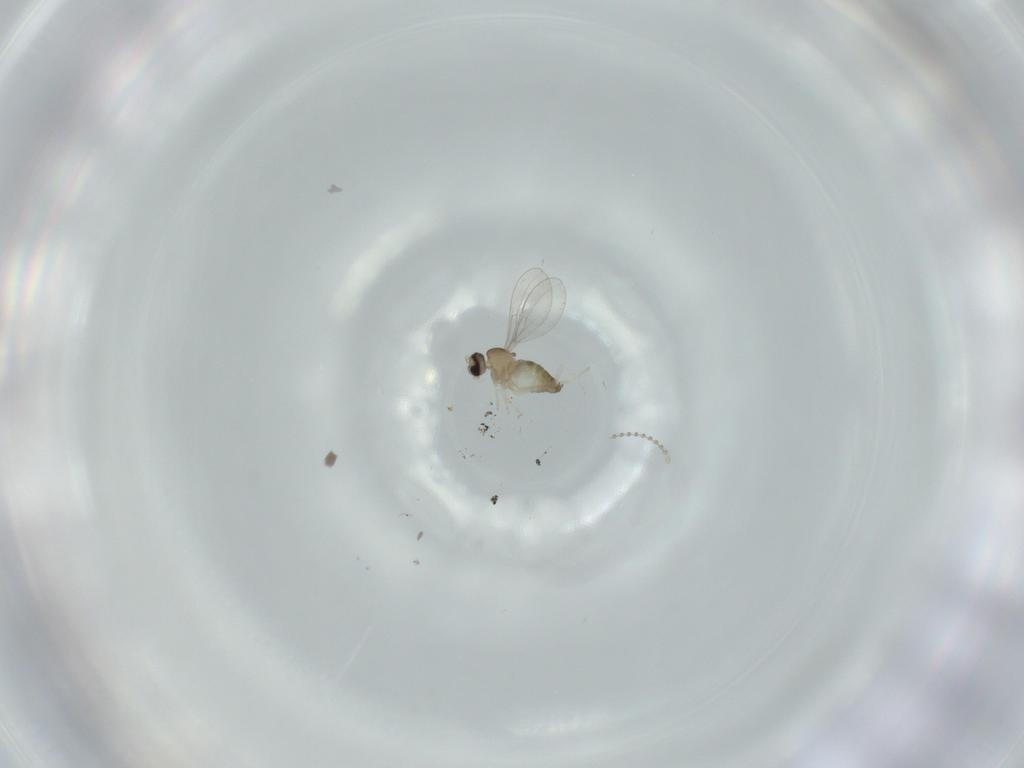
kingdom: Animalia
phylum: Arthropoda
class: Insecta
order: Diptera
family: Cecidomyiidae
